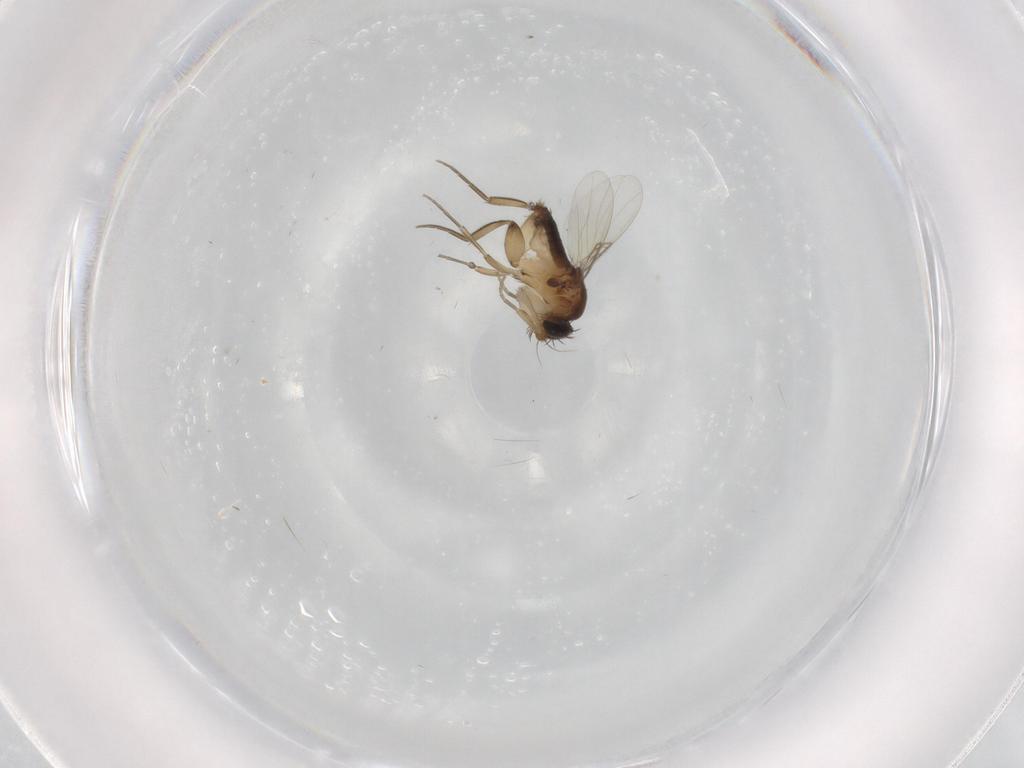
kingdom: Animalia
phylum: Arthropoda
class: Insecta
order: Diptera
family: Phoridae
